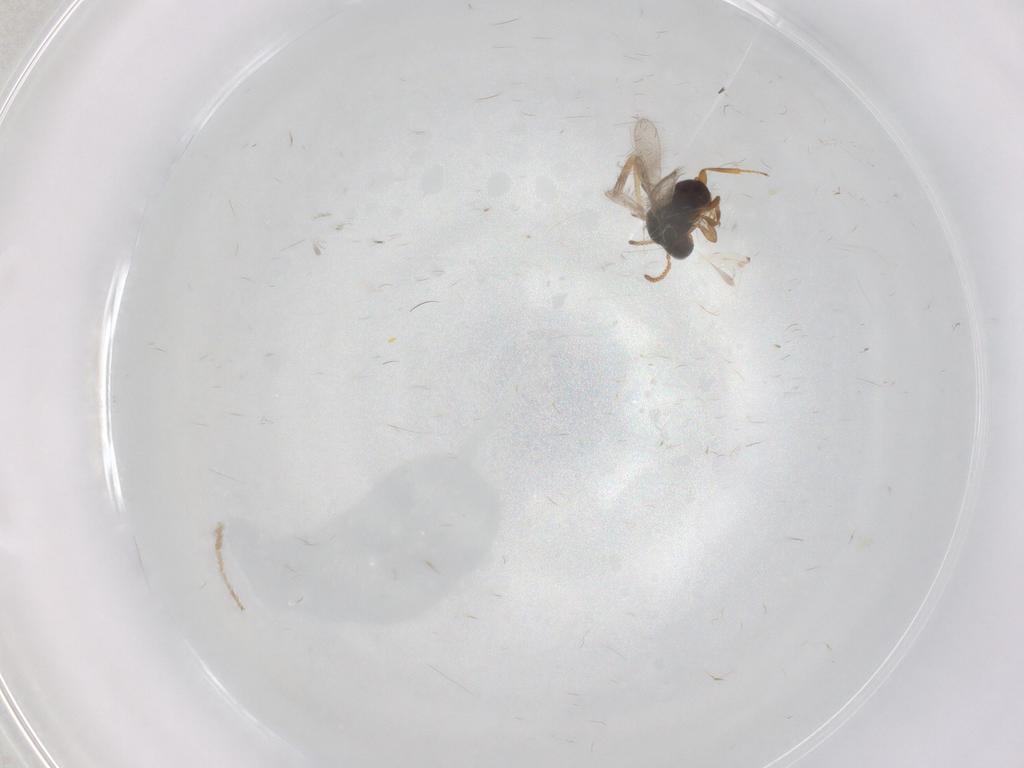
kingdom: Animalia
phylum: Arthropoda
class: Insecta
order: Hymenoptera
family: Scelionidae
